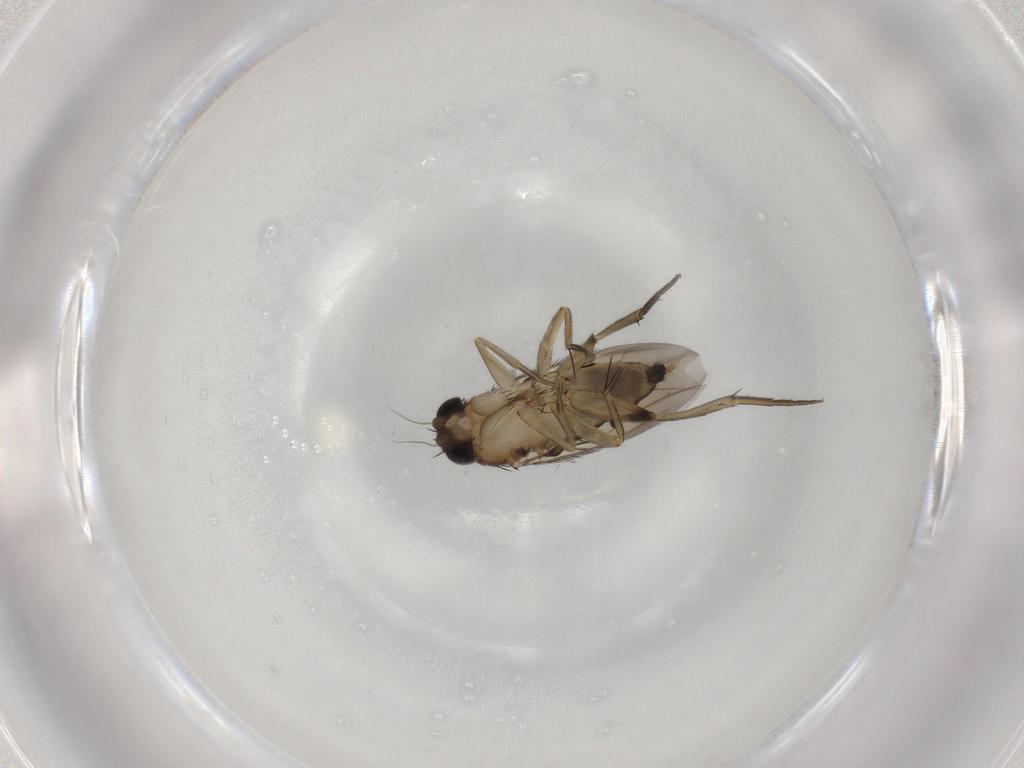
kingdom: Animalia
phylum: Arthropoda
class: Insecta
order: Diptera
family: Phoridae
